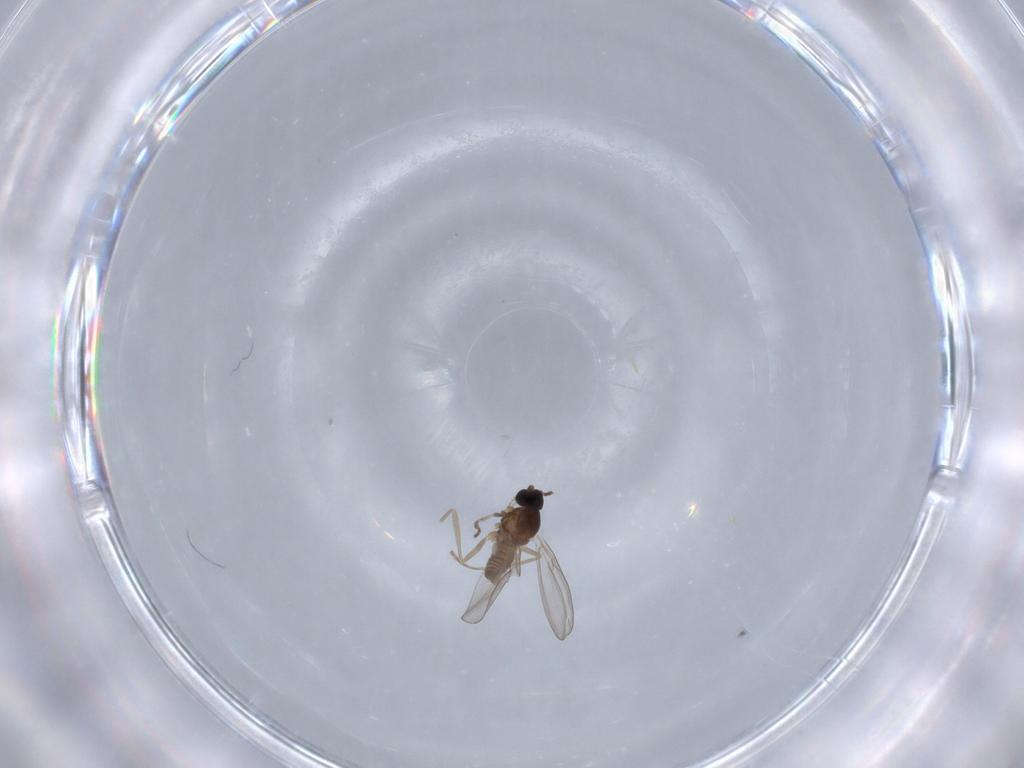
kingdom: Animalia
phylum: Arthropoda
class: Insecta
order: Diptera
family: Cecidomyiidae
